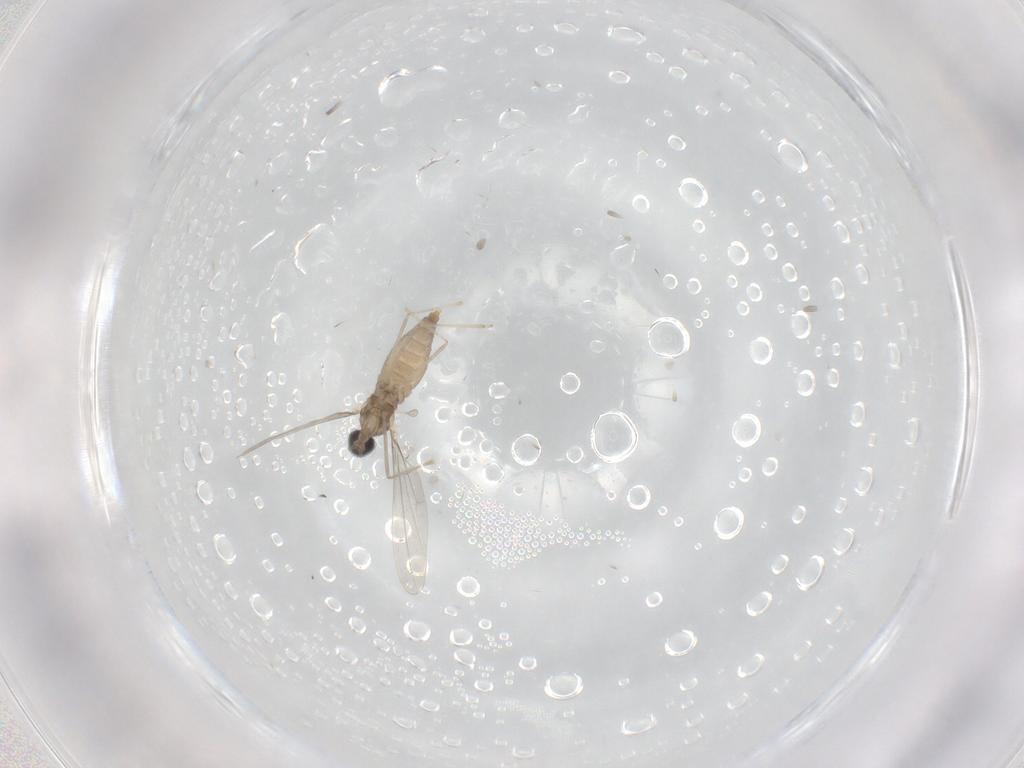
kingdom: Animalia
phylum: Arthropoda
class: Insecta
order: Diptera
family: Cecidomyiidae
